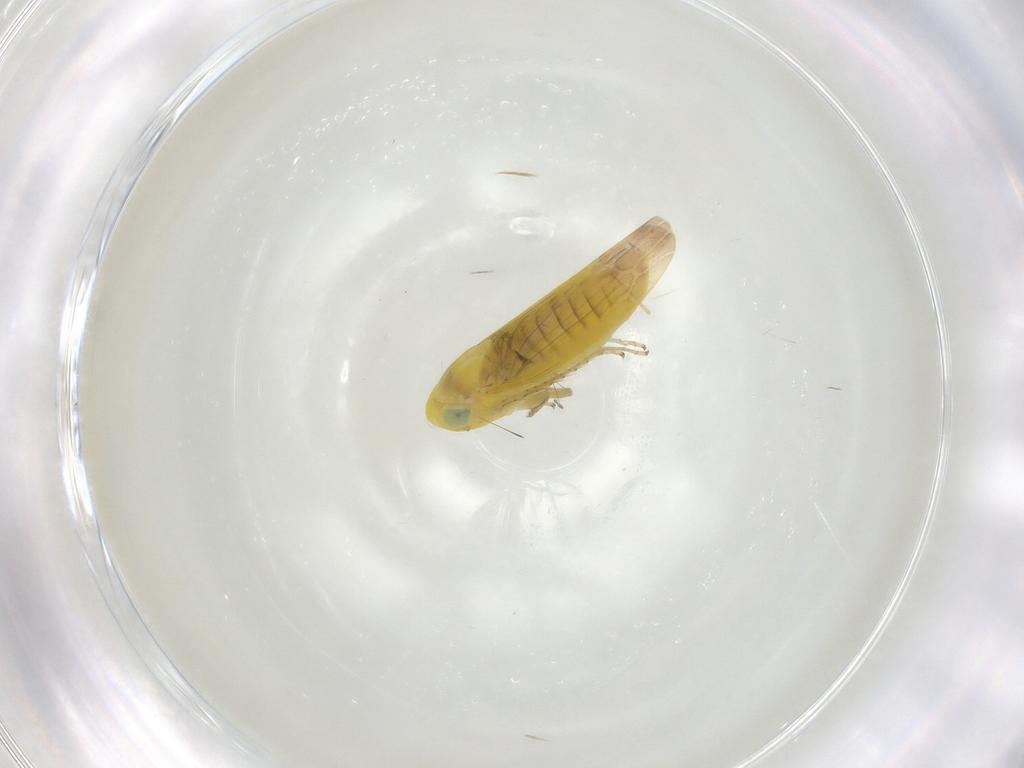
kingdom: Animalia
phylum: Arthropoda
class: Insecta
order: Hemiptera
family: Cicadellidae
